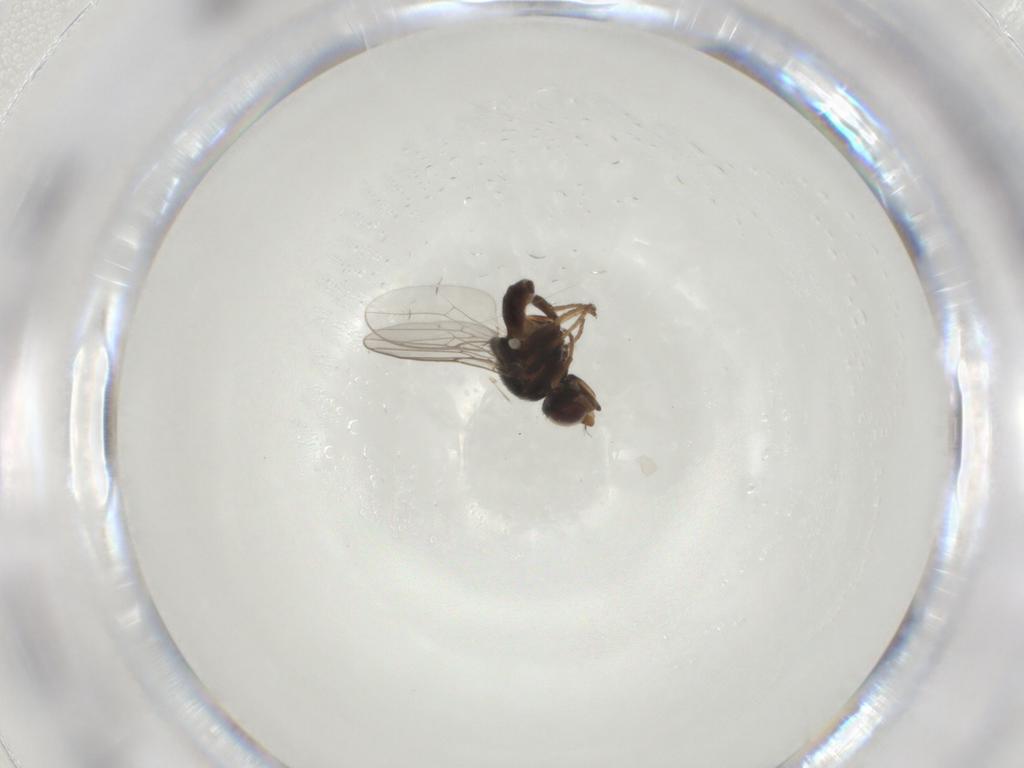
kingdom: Animalia
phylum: Arthropoda
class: Insecta
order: Diptera
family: Chloropidae
